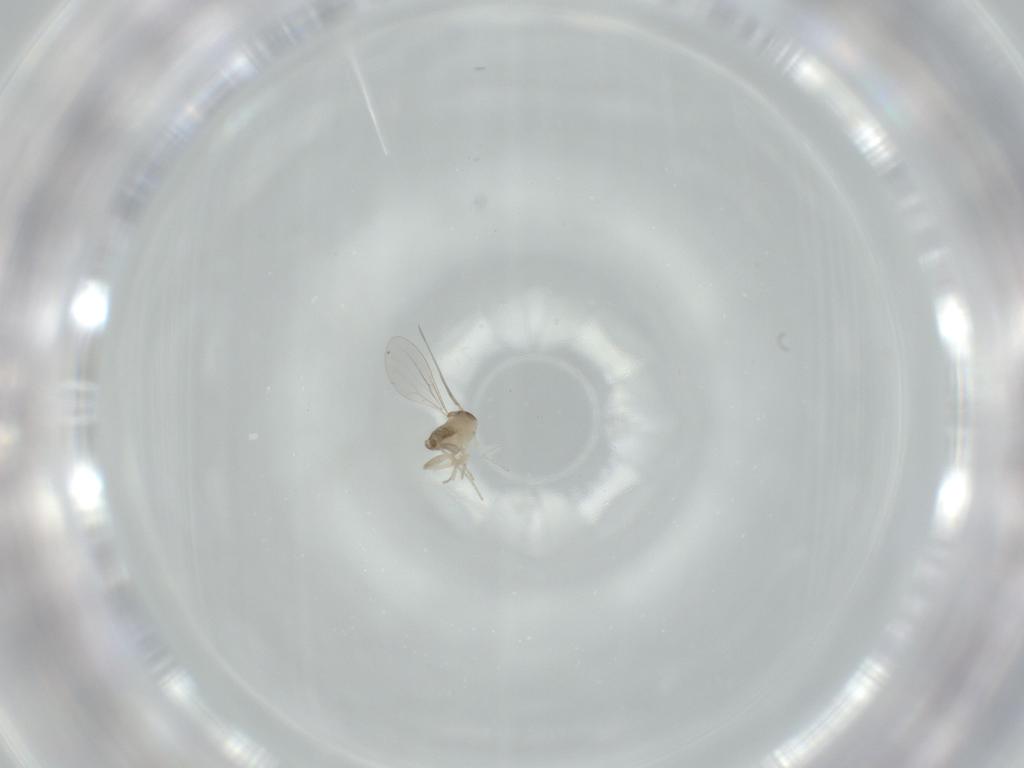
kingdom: Animalia
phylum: Arthropoda
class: Insecta
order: Diptera
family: Cecidomyiidae
